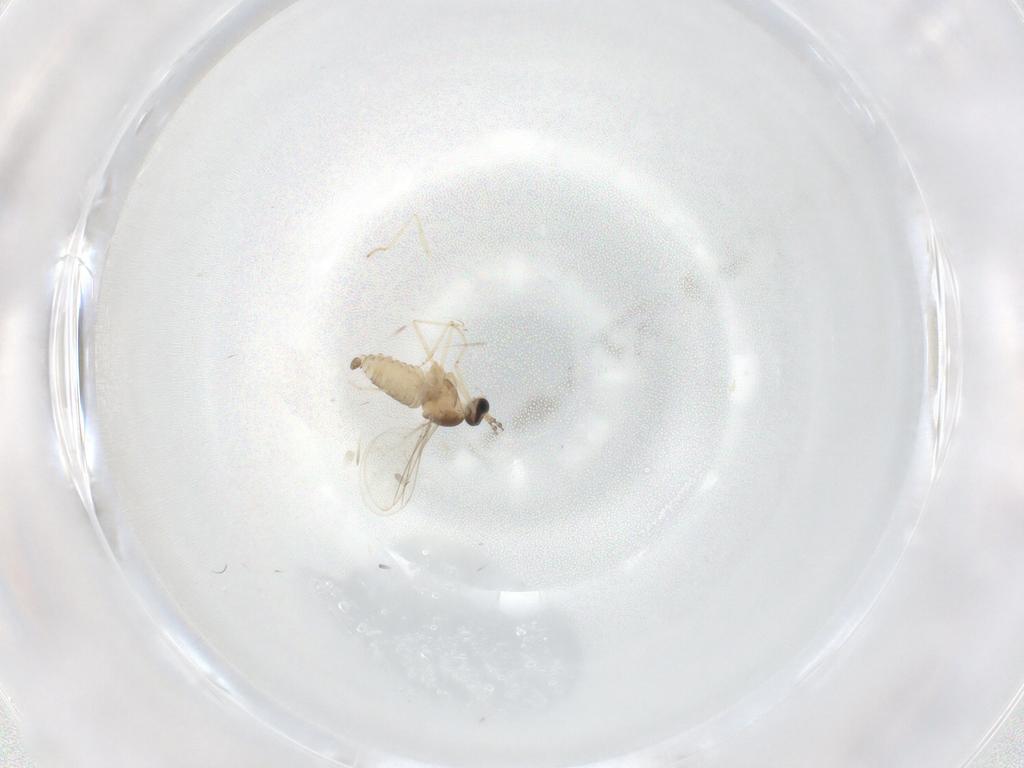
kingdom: Animalia
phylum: Arthropoda
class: Insecta
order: Diptera
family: Cecidomyiidae
